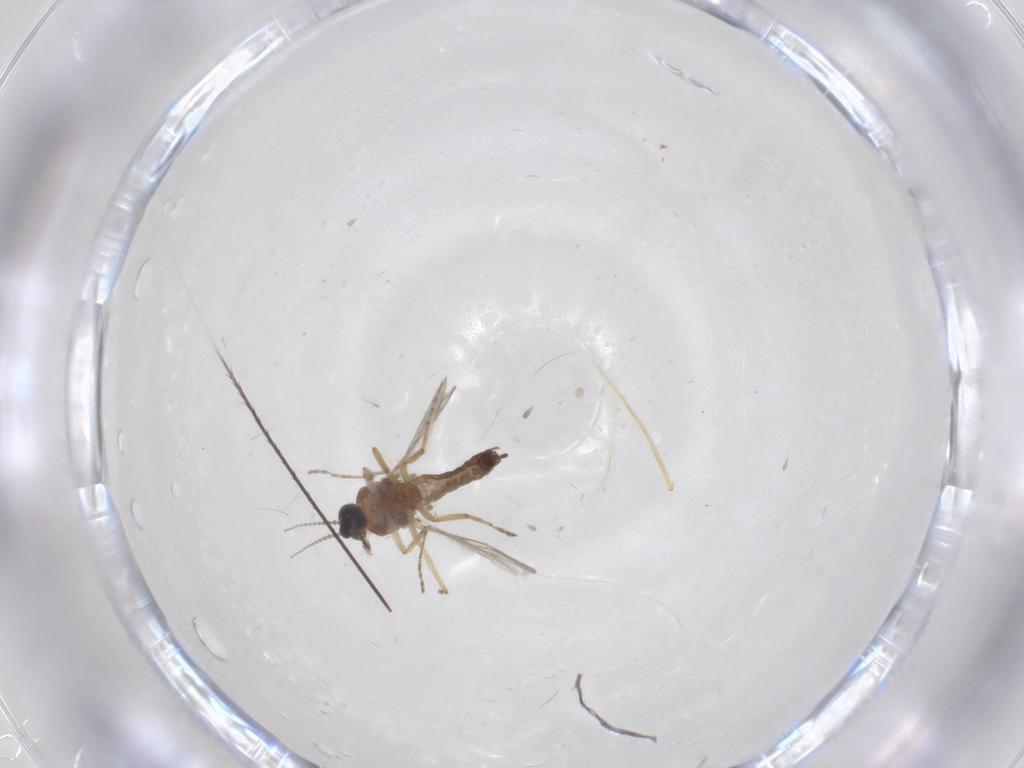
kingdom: Animalia
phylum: Arthropoda
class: Insecta
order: Diptera
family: Ceratopogonidae
